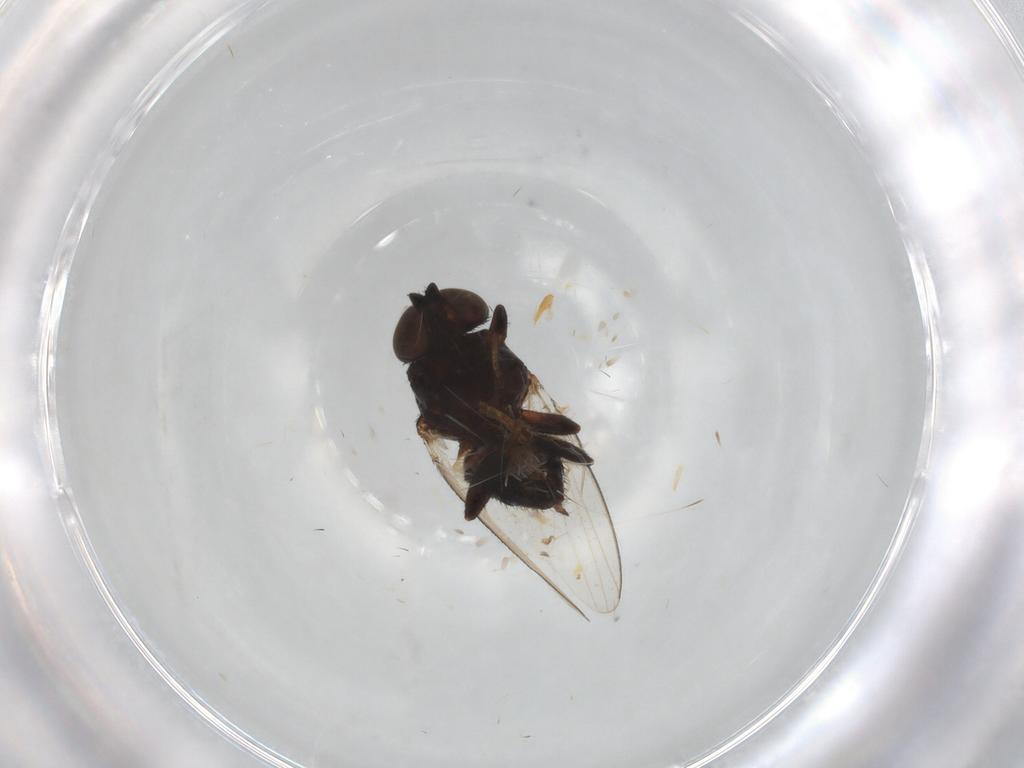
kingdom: Animalia
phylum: Arthropoda
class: Insecta
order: Diptera
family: Milichiidae
